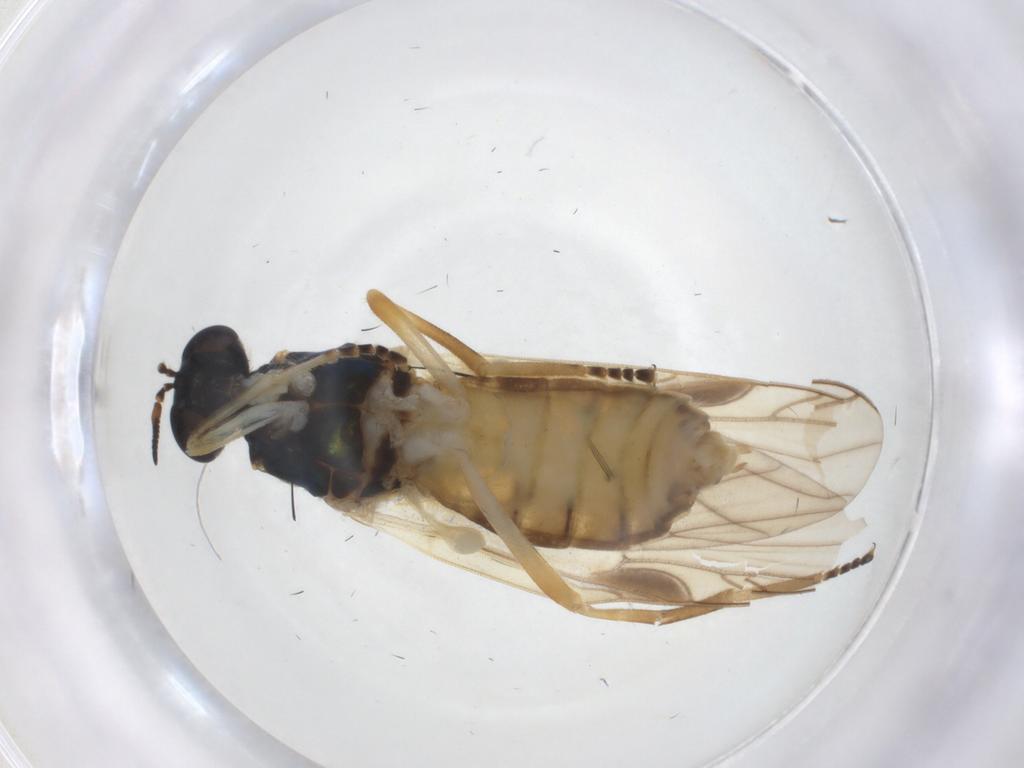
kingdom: Animalia
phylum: Arthropoda
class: Insecta
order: Diptera
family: Stratiomyidae
